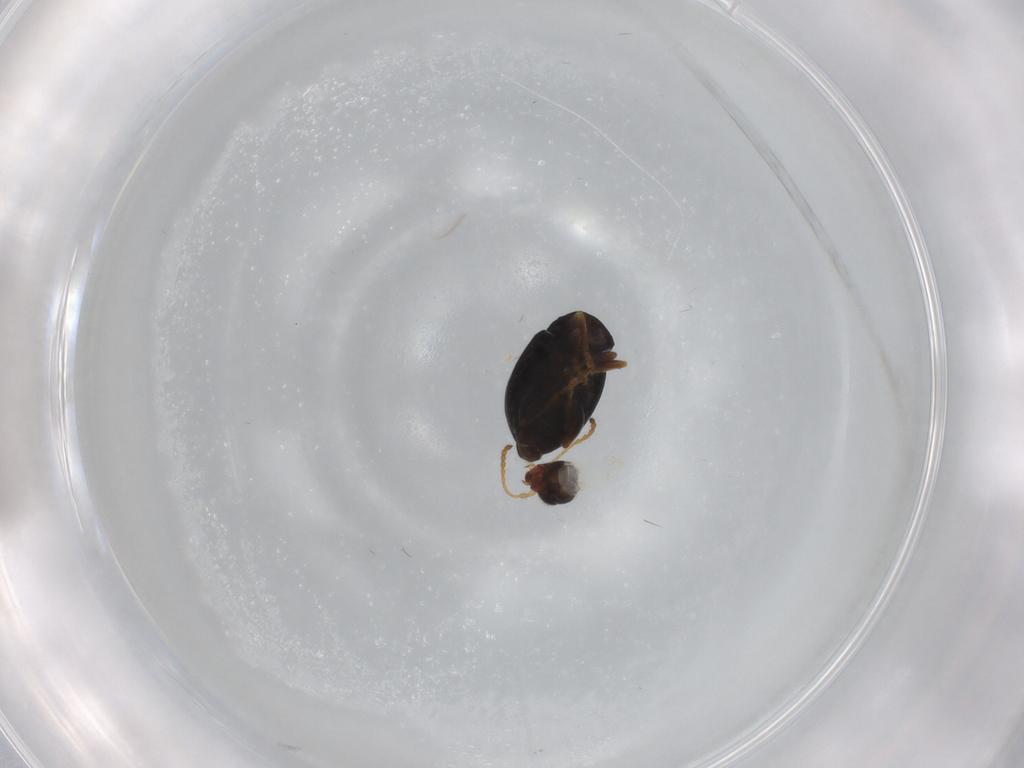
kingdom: Animalia
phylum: Arthropoda
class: Insecta
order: Coleoptera
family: Chrysomelidae
